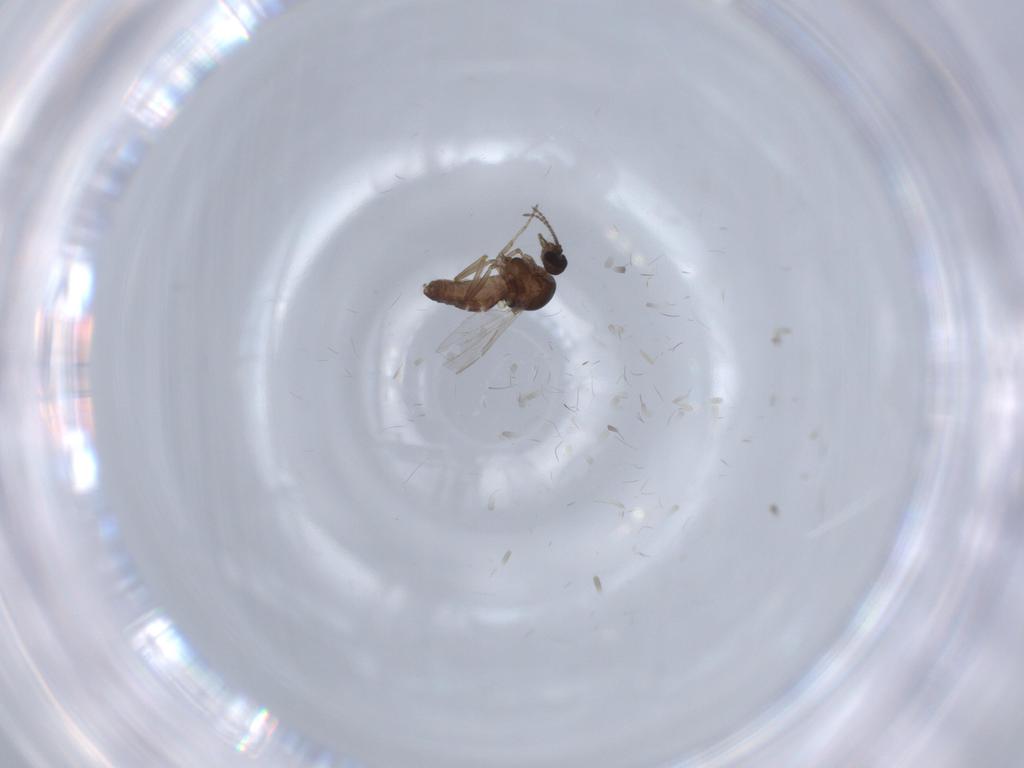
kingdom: Animalia
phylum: Arthropoda
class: Insecta
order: Diptera
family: Ceratopogonidae
